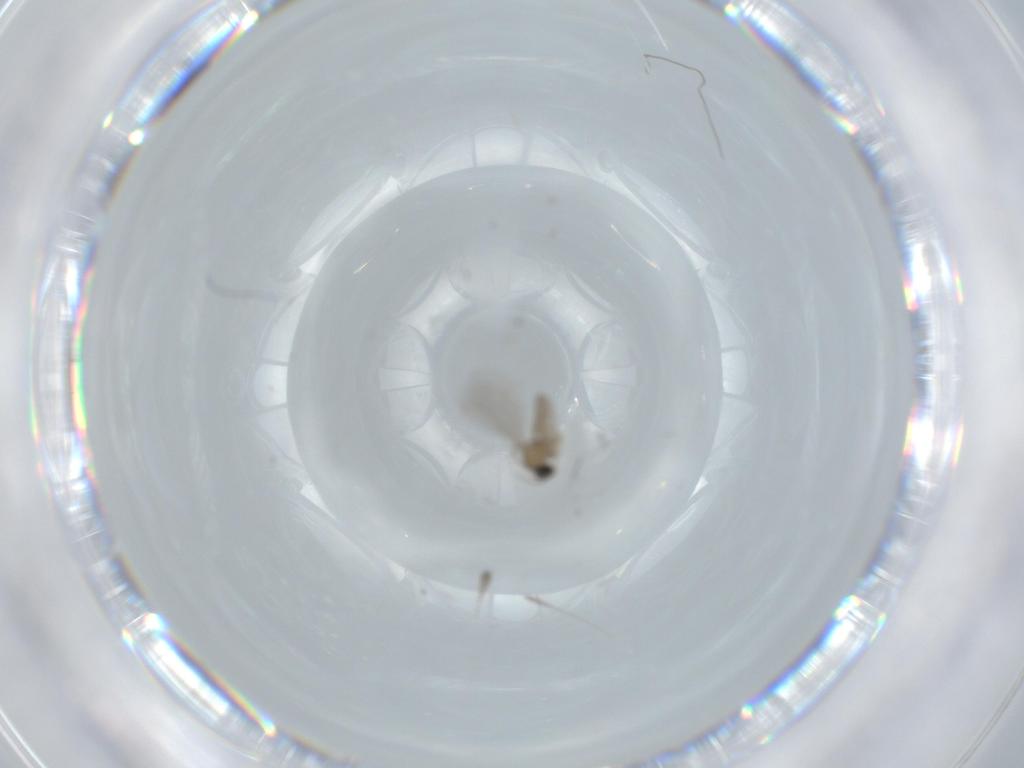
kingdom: Animalia
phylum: Arthropoda
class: Insecta
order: Diptera
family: Cecidomyiidae
